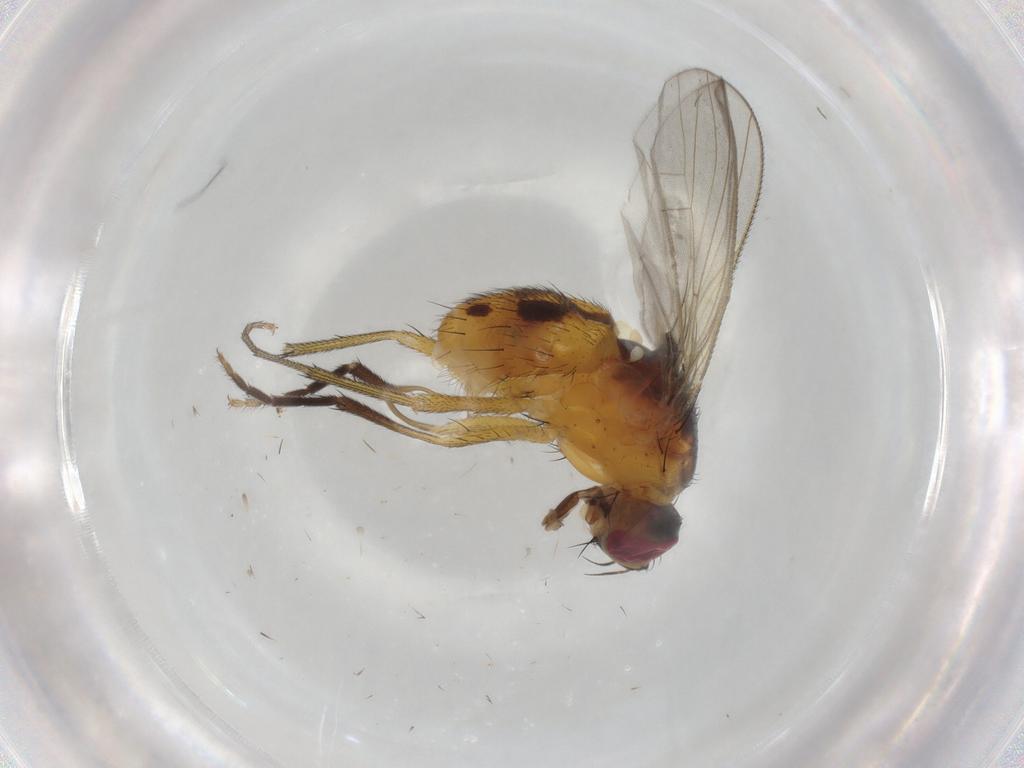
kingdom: Animalia
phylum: Arthropoda
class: Insecta
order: Diptera
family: Muscidae
